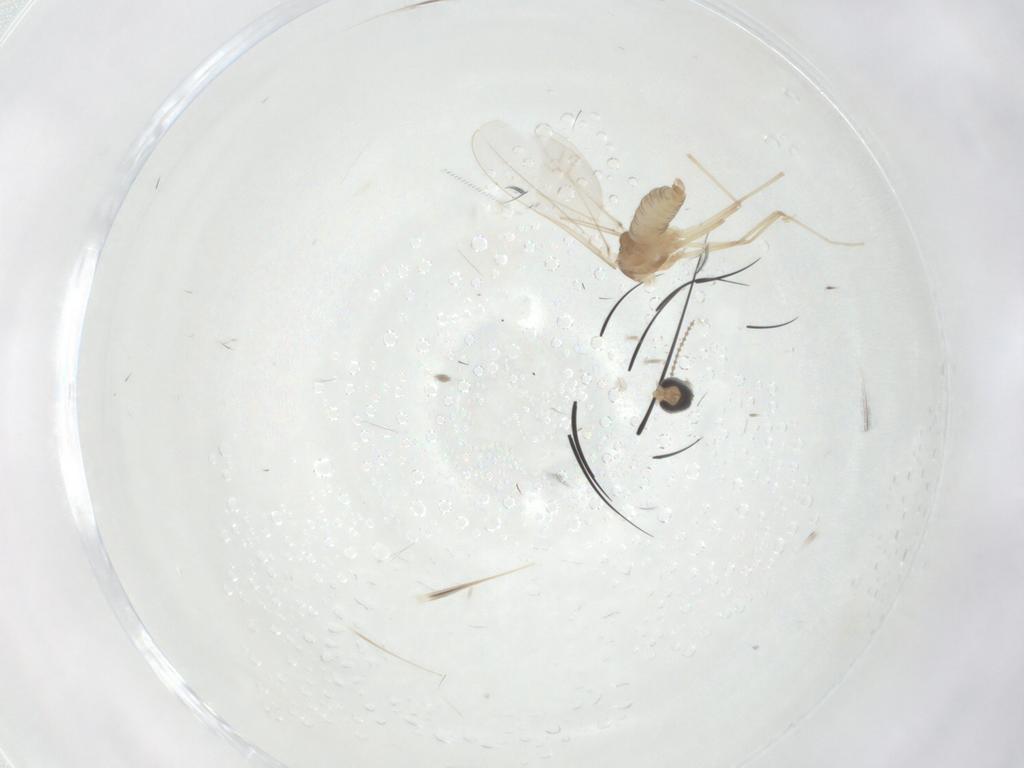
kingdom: Animalia
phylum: Arthropoda
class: Insecta
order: Diptera
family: Cecidomyiidae
